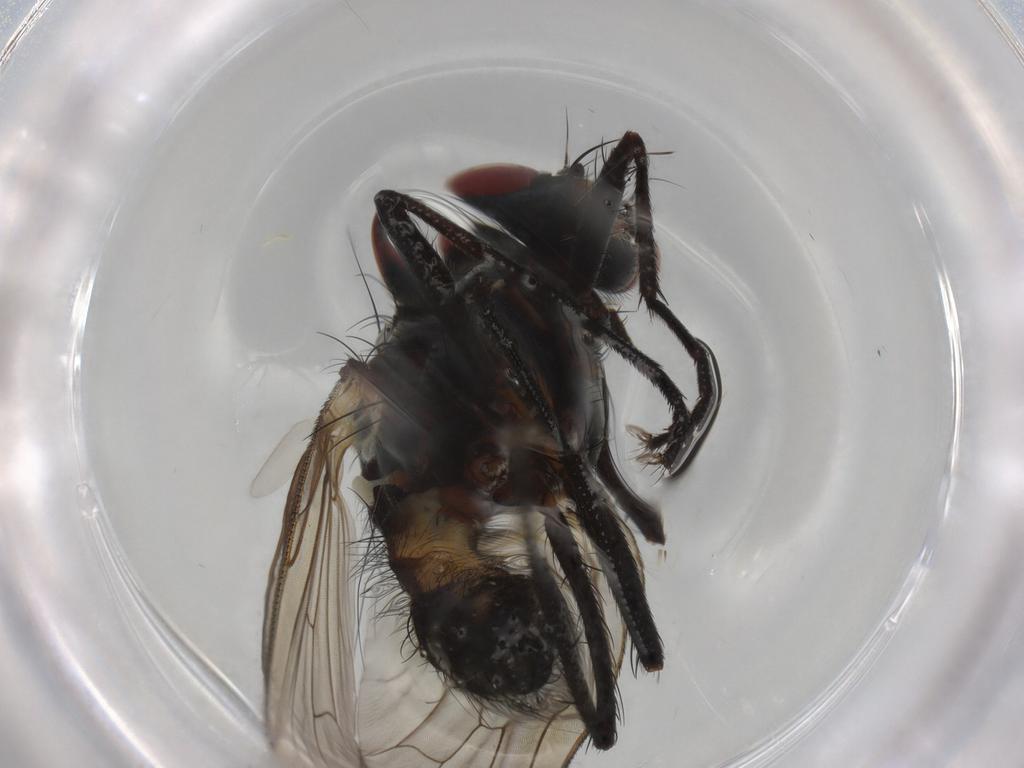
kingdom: Animalia
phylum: Arthropoda
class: Insecta
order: Diptera
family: Anthomyiidae
